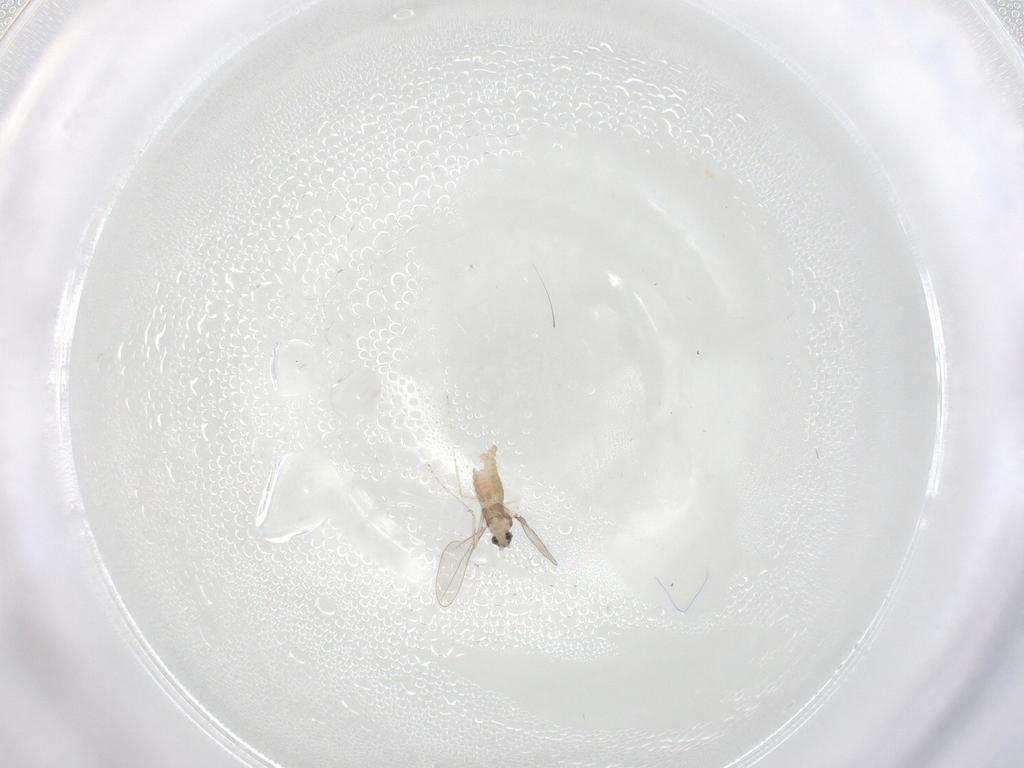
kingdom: Animalia
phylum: Arthropoda
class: Insecta
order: Diptera
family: Cecidomyiidae
